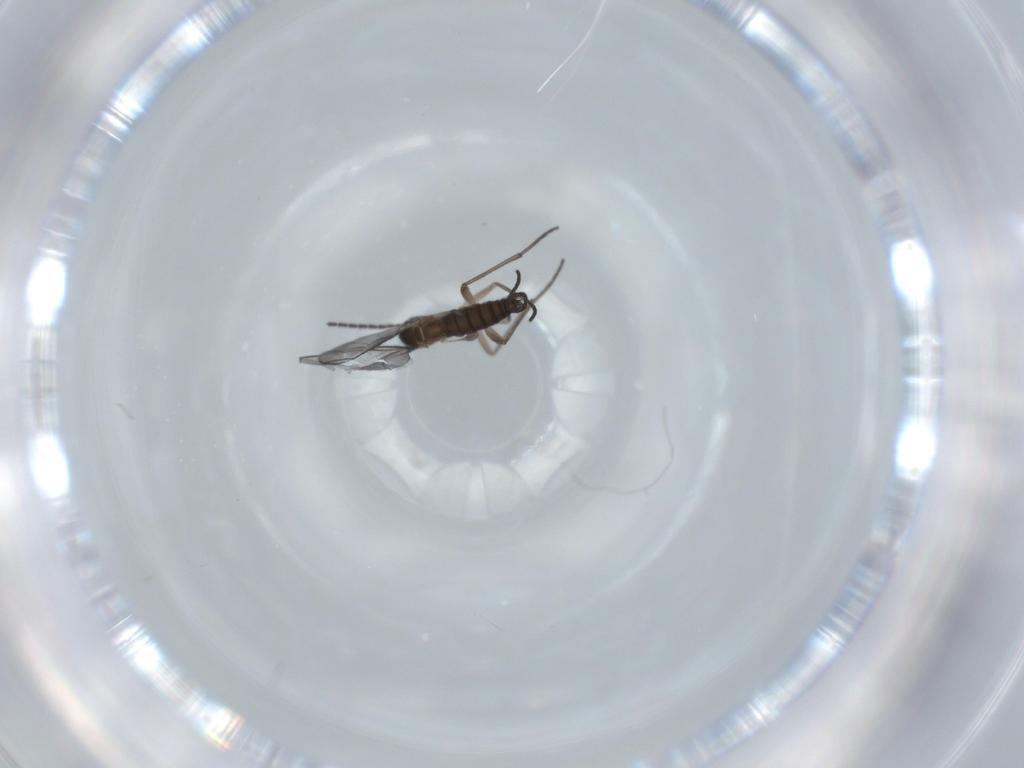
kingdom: Animalia
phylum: Arthropoda
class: Insecta
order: Diptera
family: Sciaridae
